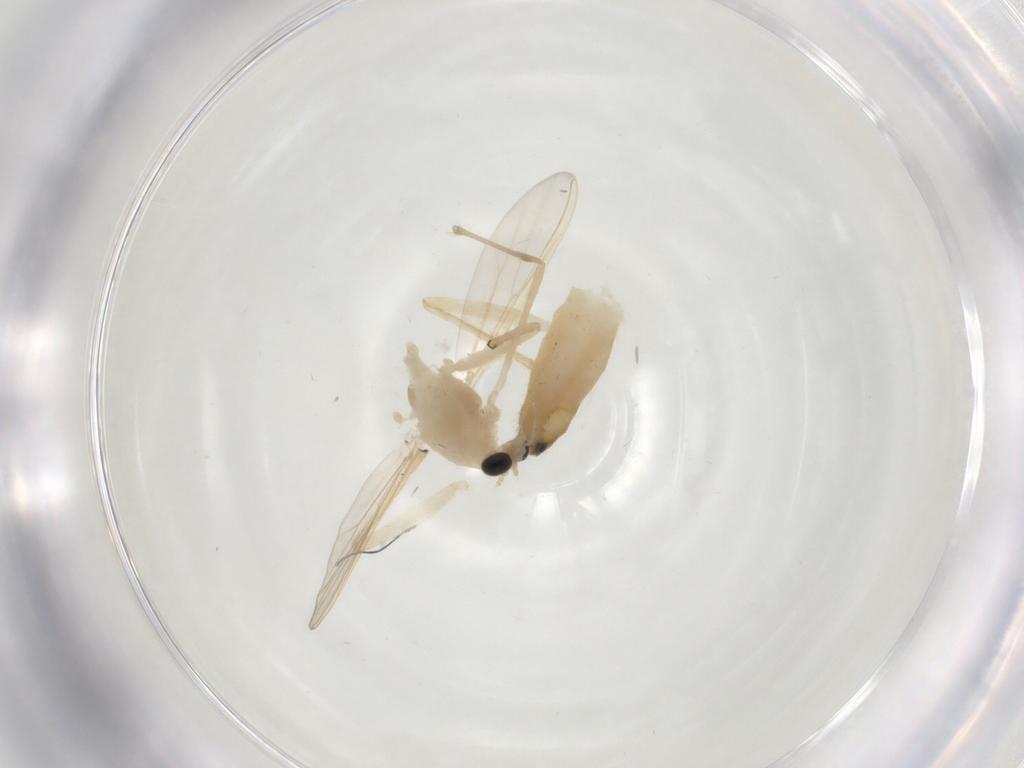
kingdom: Animalia
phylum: Arthropoda
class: Insecta
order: Diptera
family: Chironomidae
